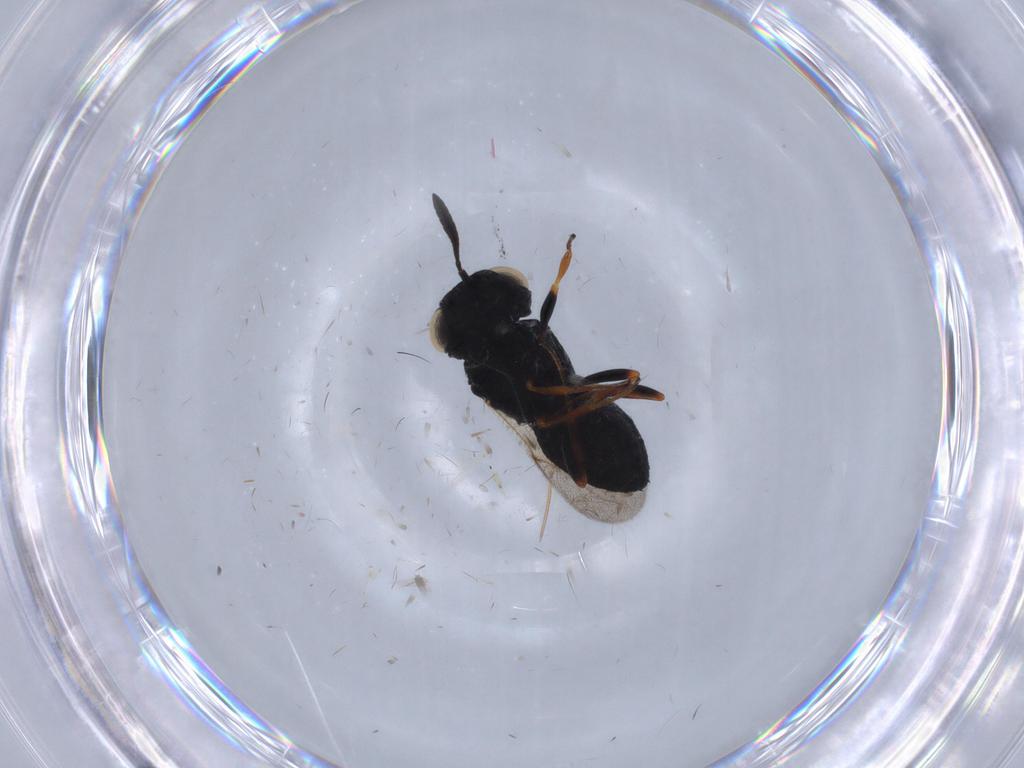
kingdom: Animalia
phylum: Arthropoda
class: Insecta
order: Hymenoptera
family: Scelionidae
